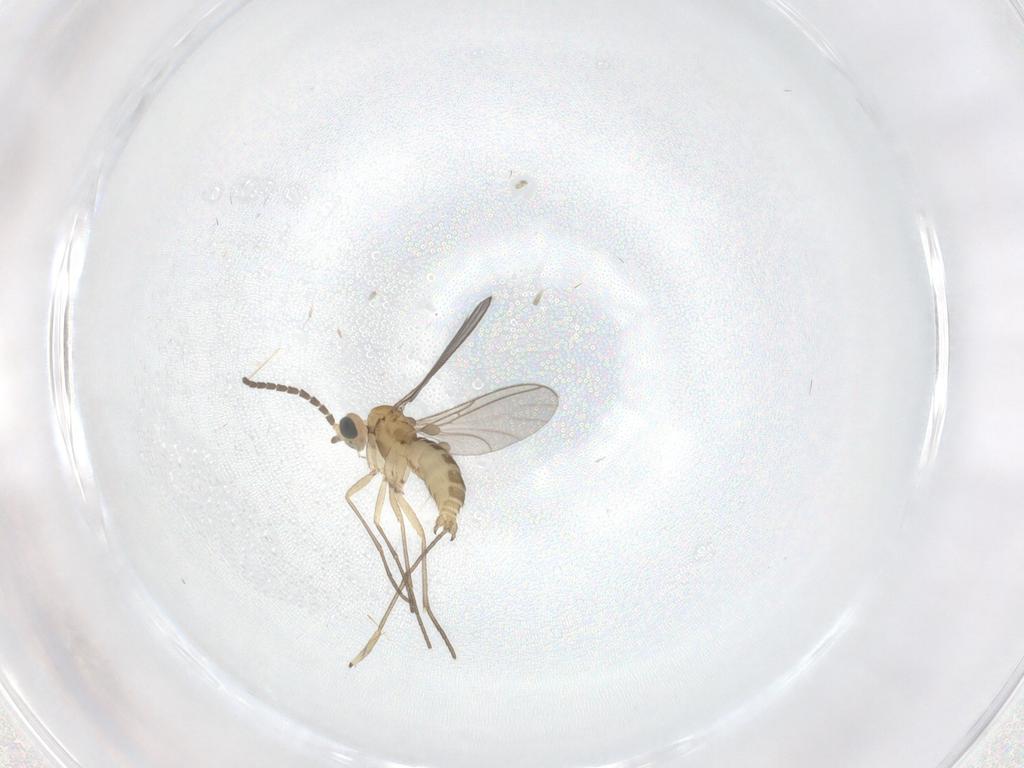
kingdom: Animalia
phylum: Arthropoda
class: Insecta
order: Diptera
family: Sciaridae
